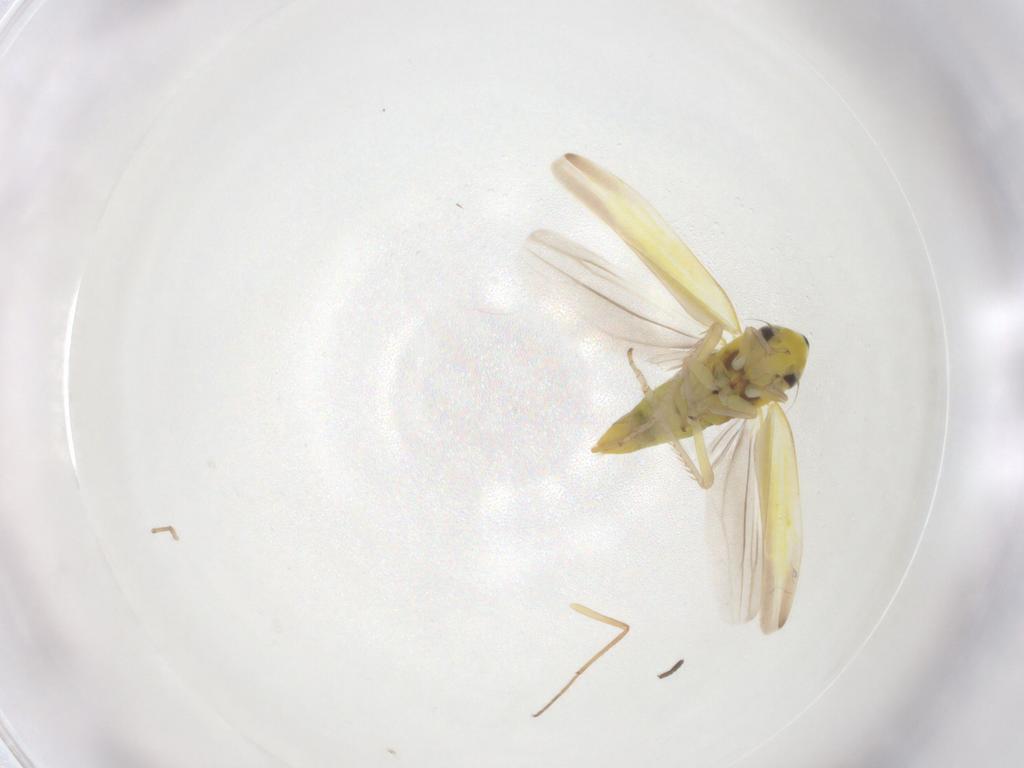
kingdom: Animalia
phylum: Arthropoda
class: Insecta
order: Hemiptera
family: Cicadellidae
